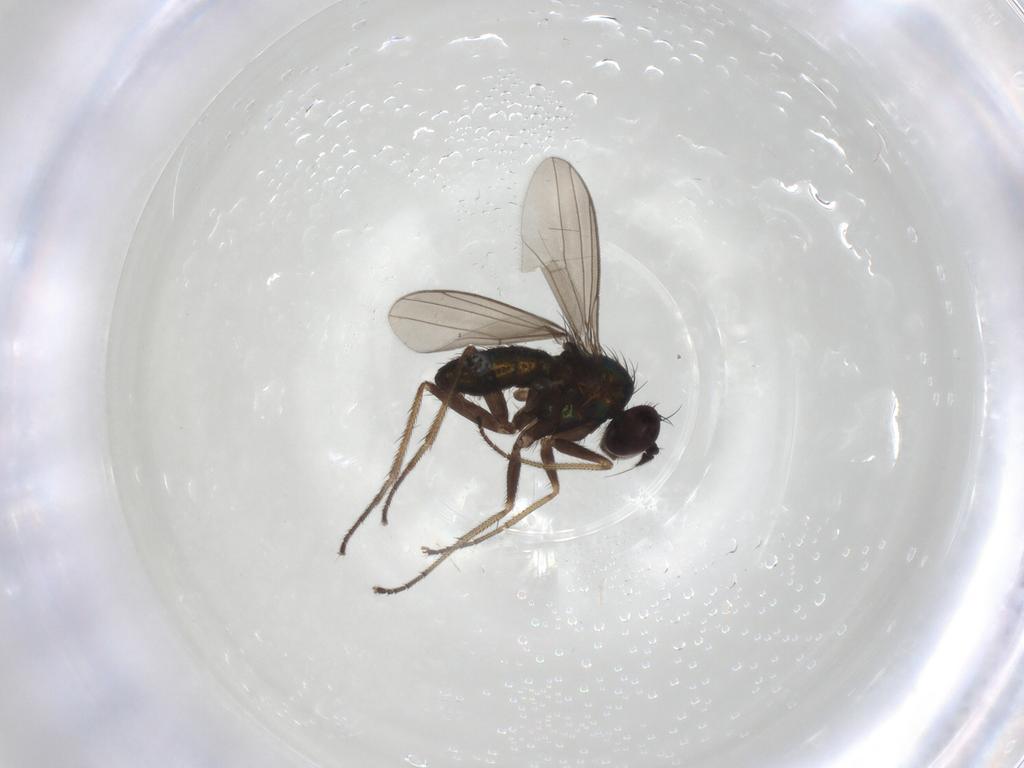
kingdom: Animalia
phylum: Arthropoda
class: Insecta
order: Diptera
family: Dolichopodidae
